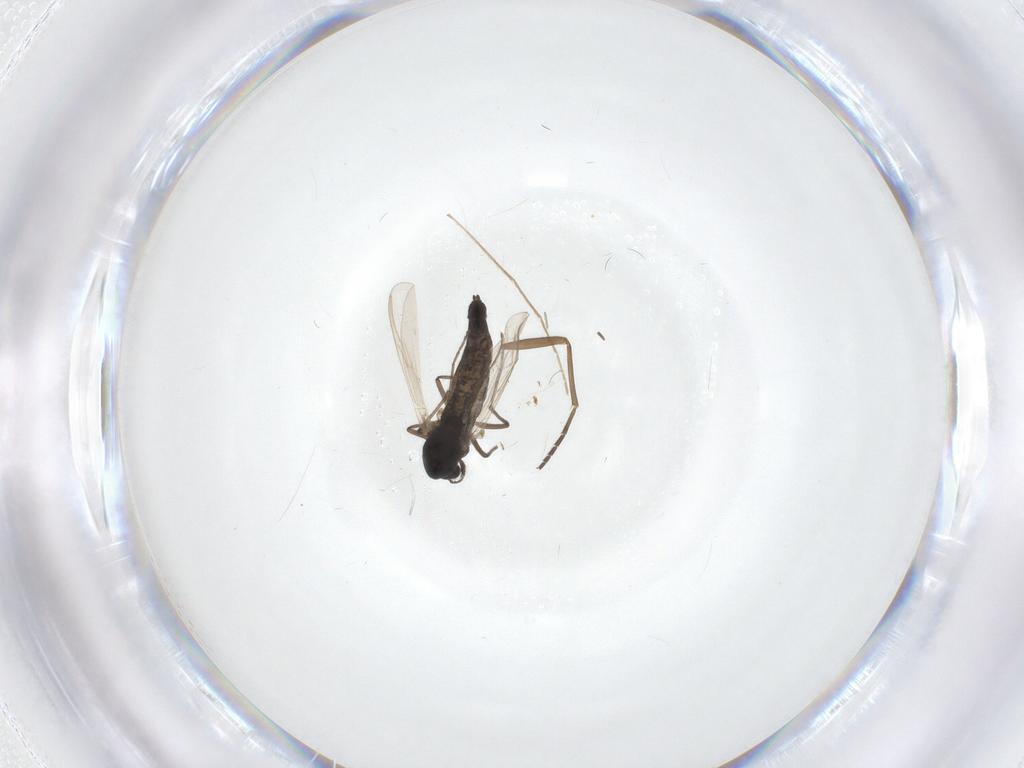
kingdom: Animalia
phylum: Arthropoda
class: Insecta
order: Diptera
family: Chironomidae
